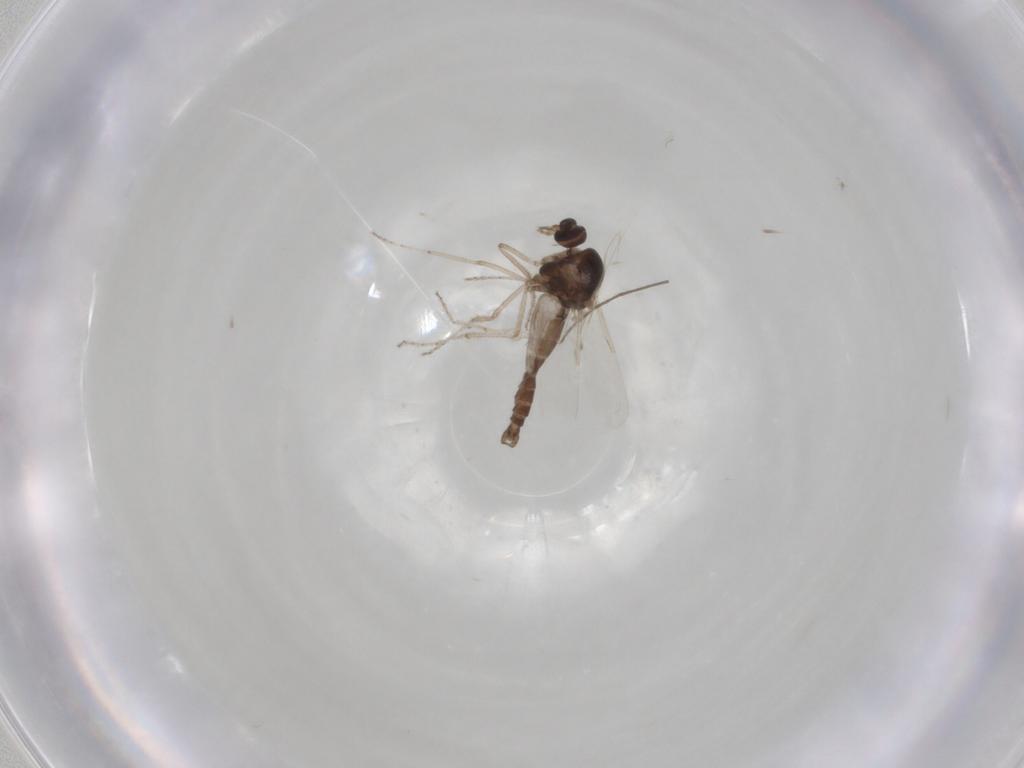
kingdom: Animalia
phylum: Arthropoda
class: Insecta
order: Diptera
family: Ceratopogonidae
